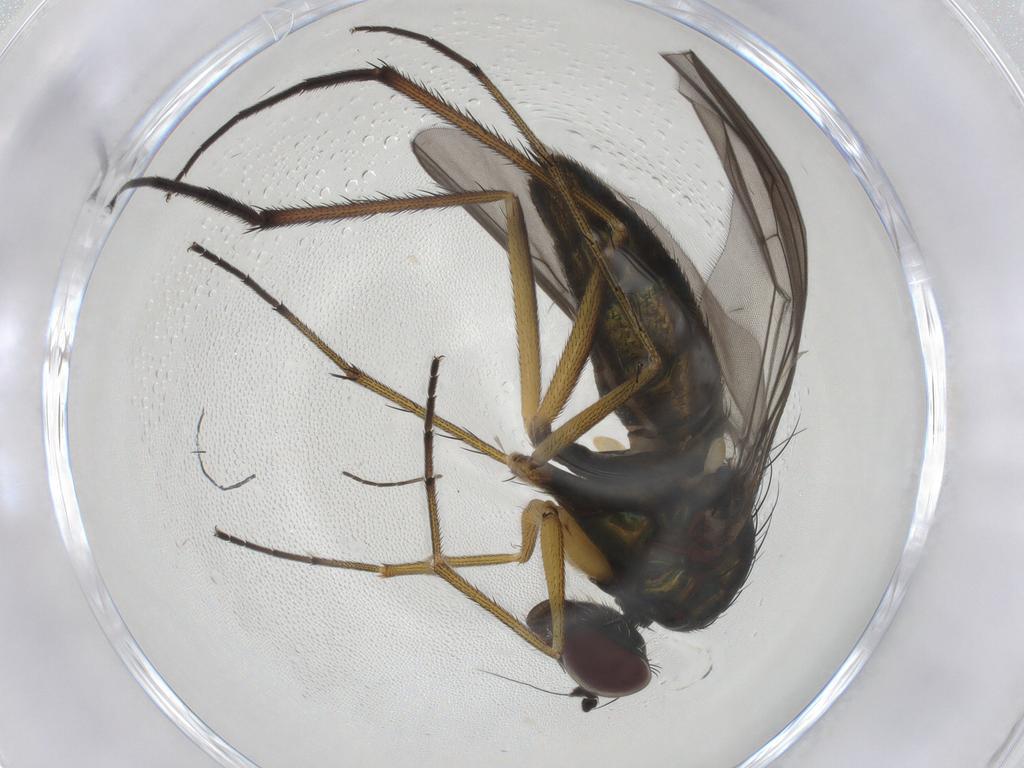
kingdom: Animalia
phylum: Arthropoda
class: Insecta
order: Diptera
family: Dolichopodidae
